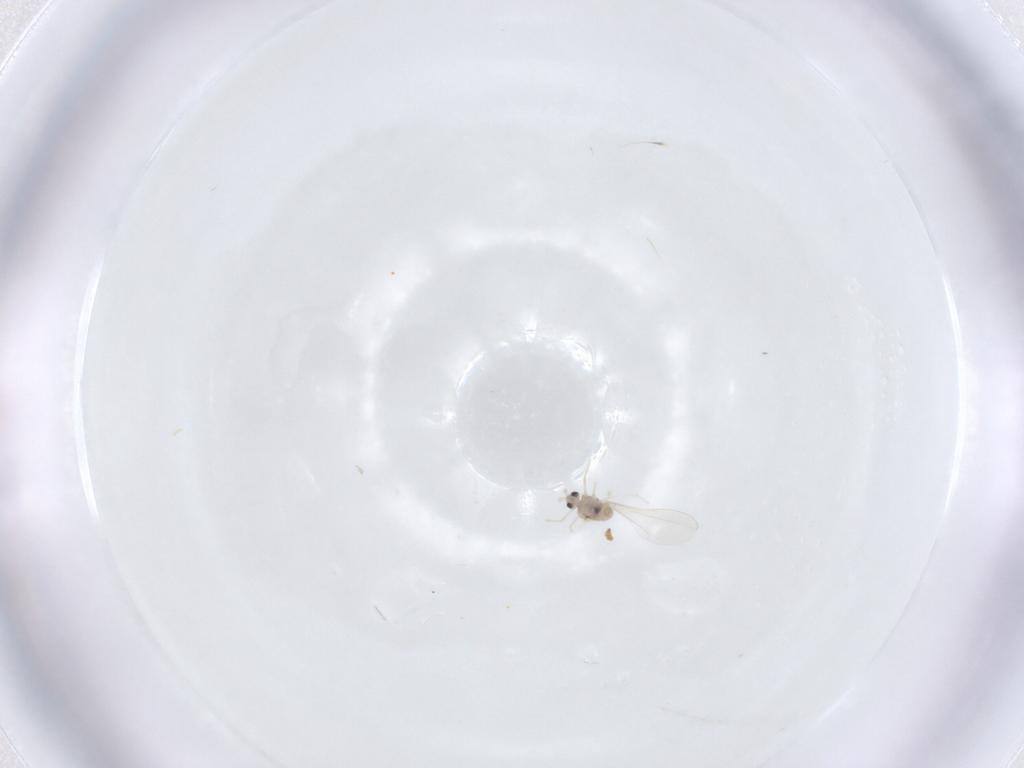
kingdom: Animalia
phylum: Arthropoda
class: Insecta
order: Diptera
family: Cecidomyiidae
